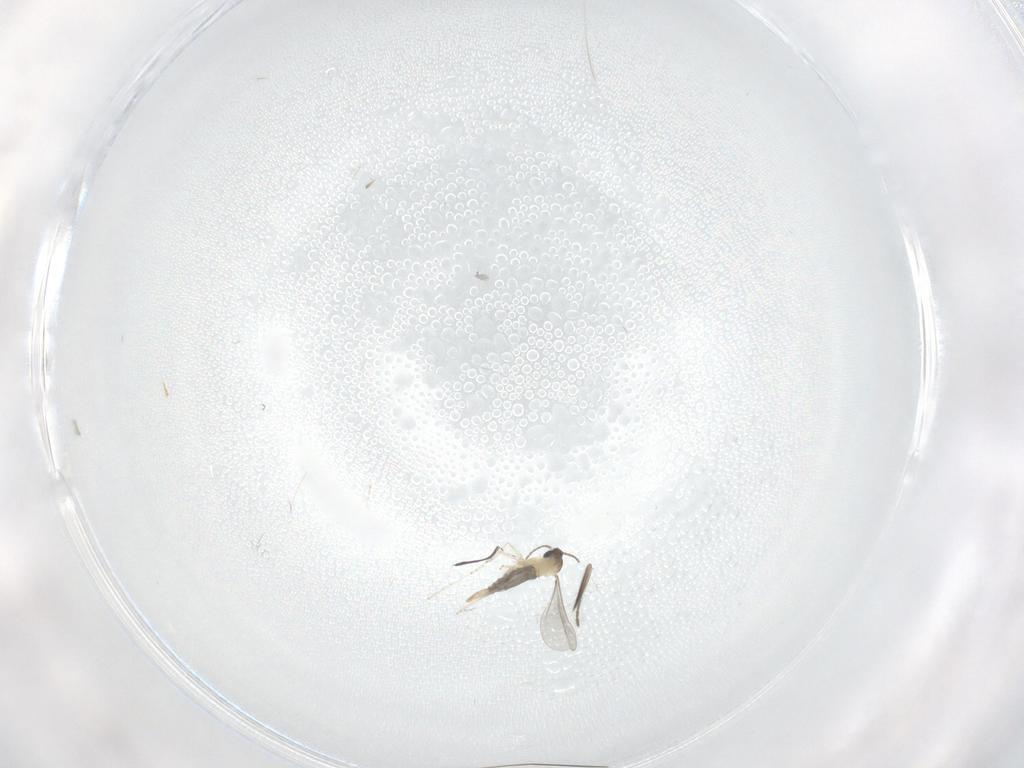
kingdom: Animalia
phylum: Arthropoda
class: Insecta
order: Diptera
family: Cecidomyiidae
